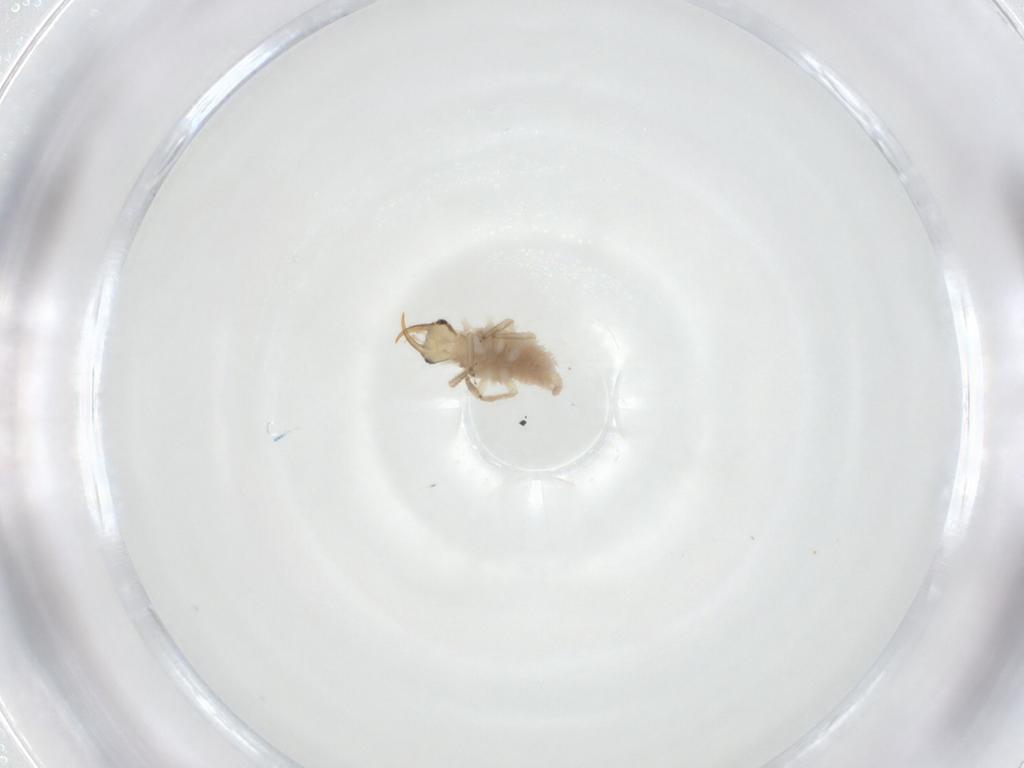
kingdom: Animalia
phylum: Arthropoda
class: Insecta
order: Neuroptera
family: Chrysopidae
